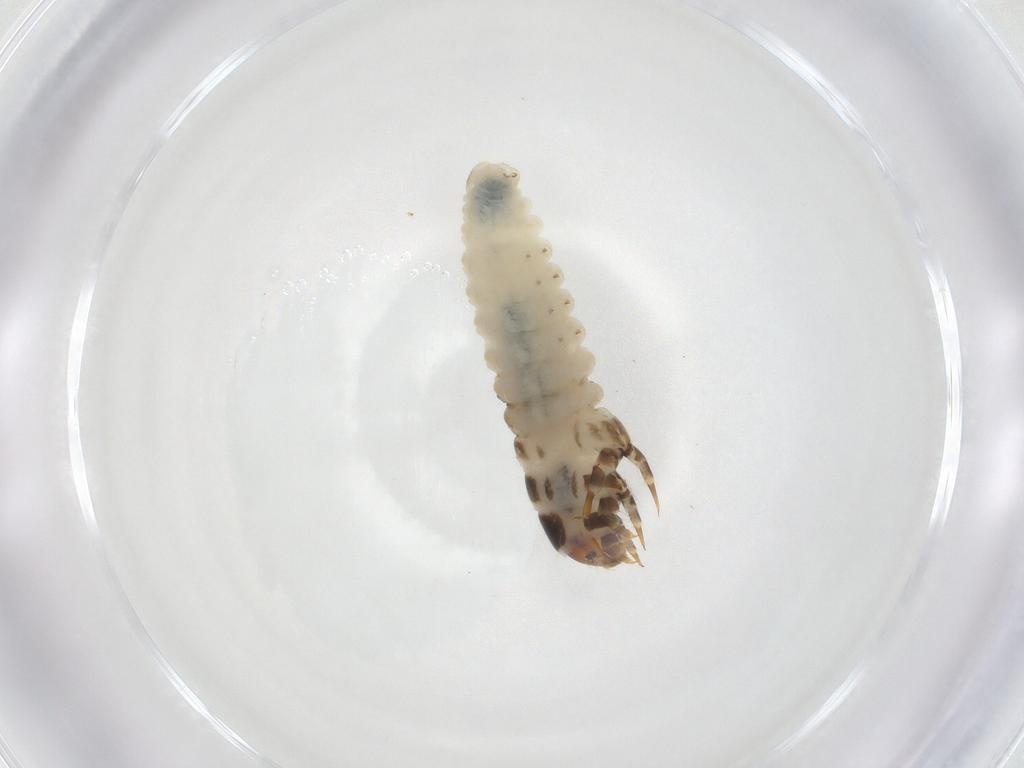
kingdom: Animalia
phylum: Arthropoda
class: Insecta
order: Lepidoptera
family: Psychidae
